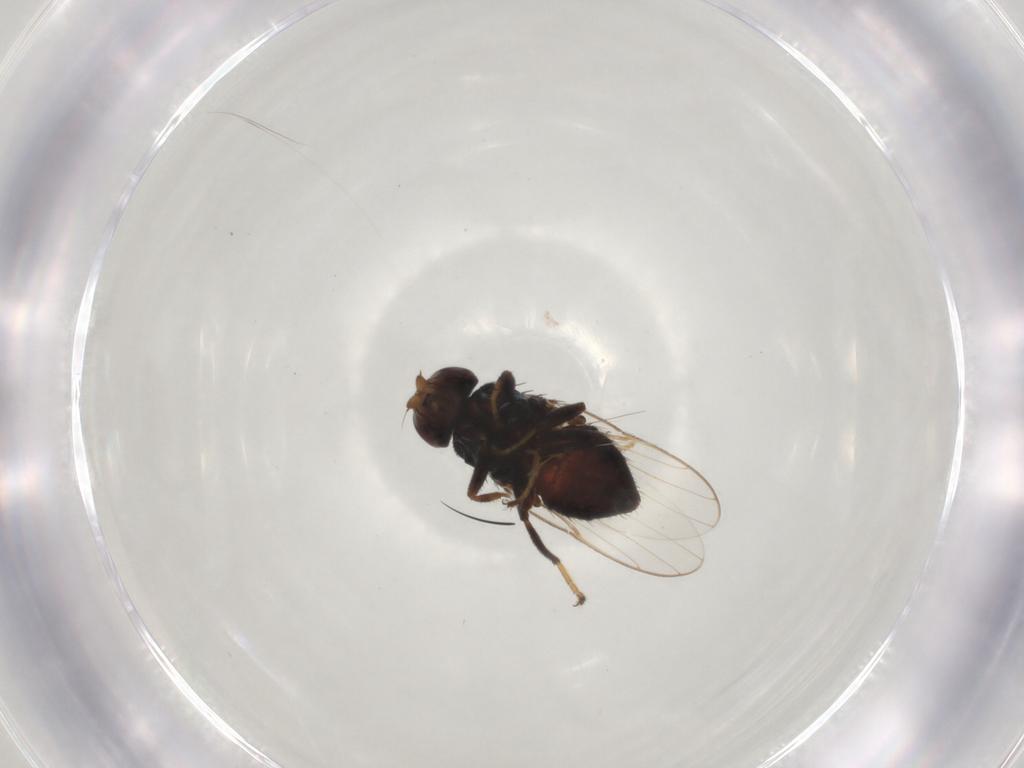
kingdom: Animalia
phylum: Arthropoda
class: Insecta
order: Diptera
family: Chloropidae
